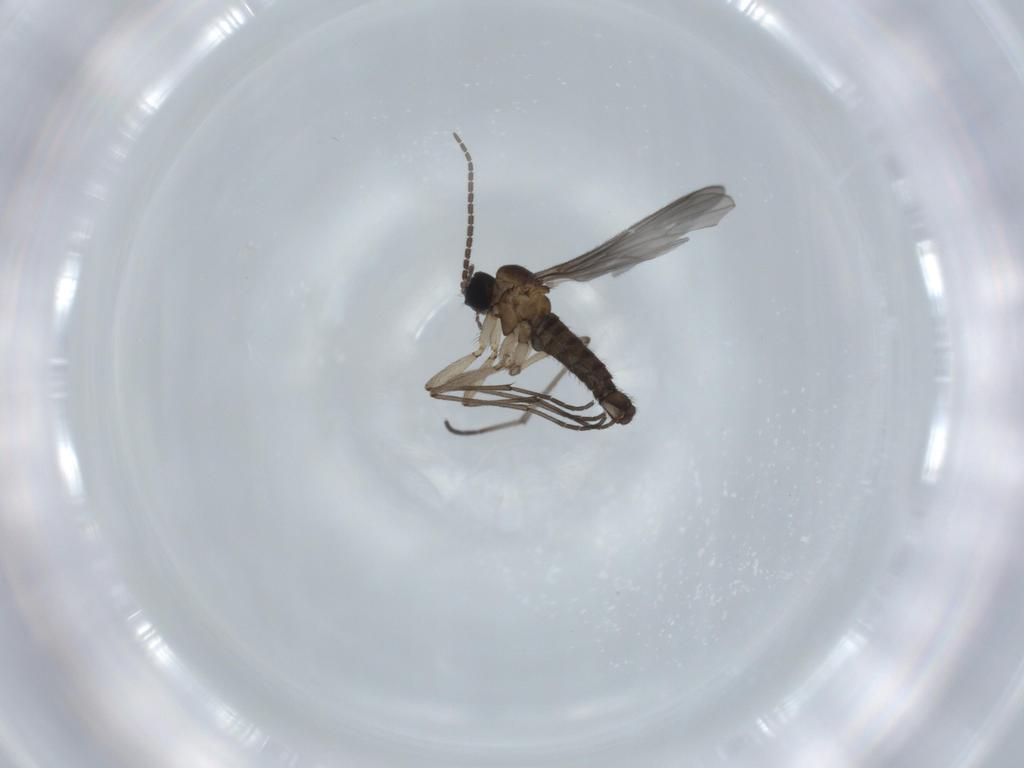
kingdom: Animalia
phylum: Arthropoda
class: Insecta
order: Diptera
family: Sciaridae
